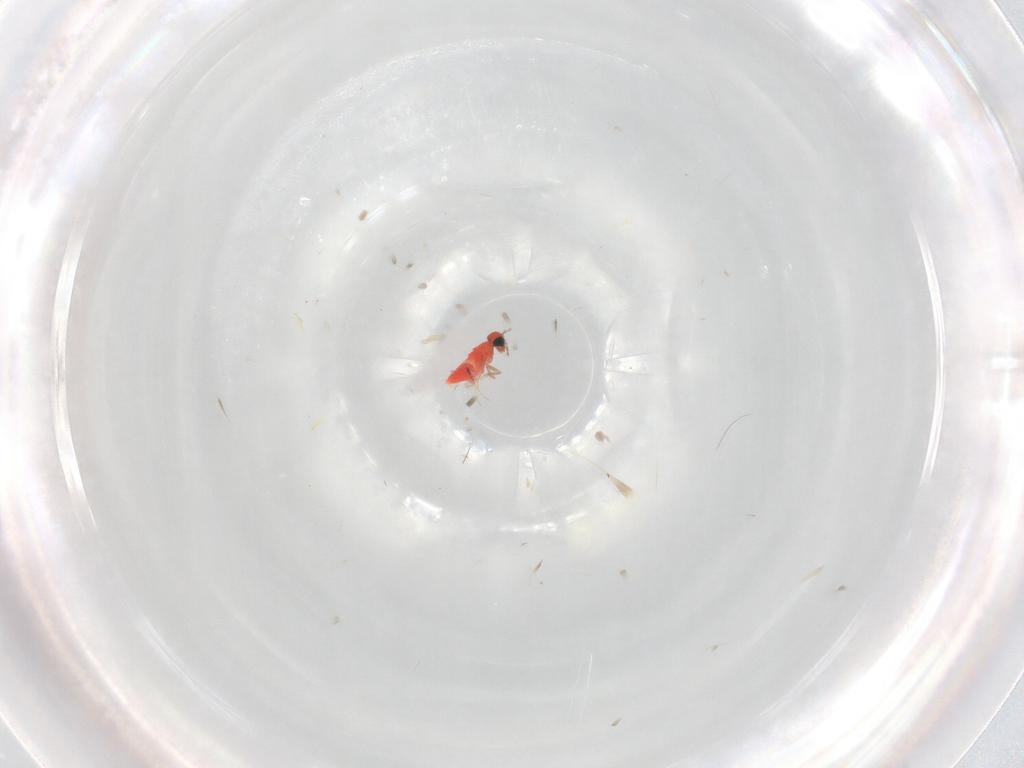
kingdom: Animalia
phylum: Arthropoda
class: Insecta
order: Hymenoptera
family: Trichogrammatidae
